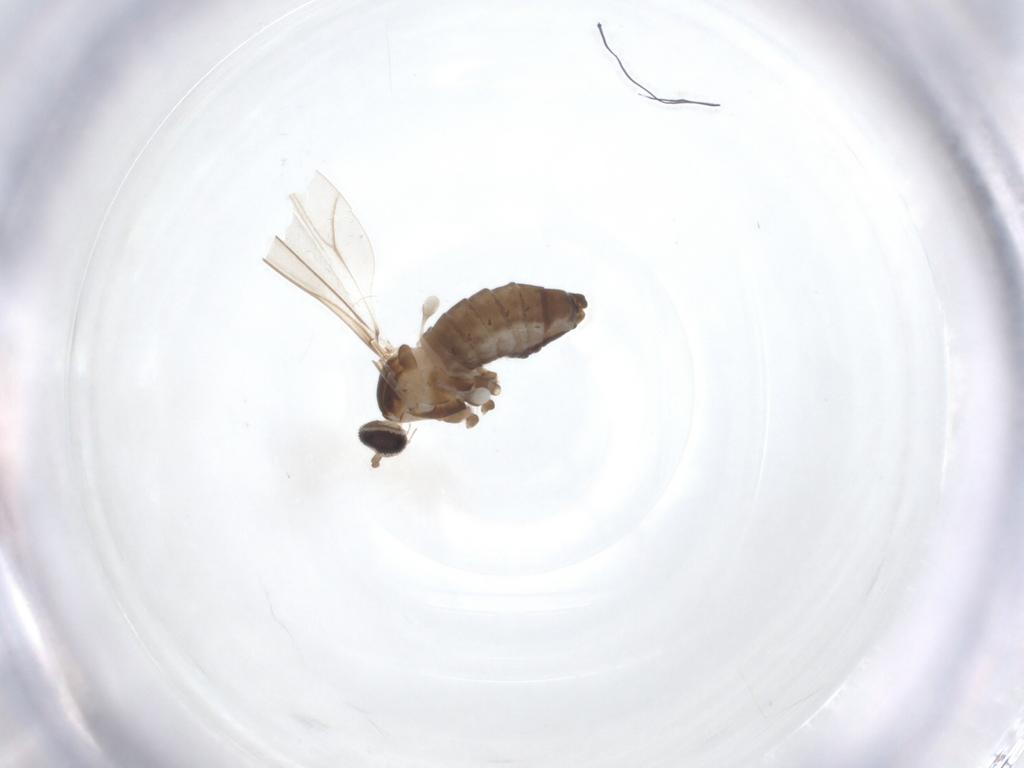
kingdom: Animalia
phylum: Arthropoda
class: Insecta
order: Diptera
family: Cecidomyiidae
